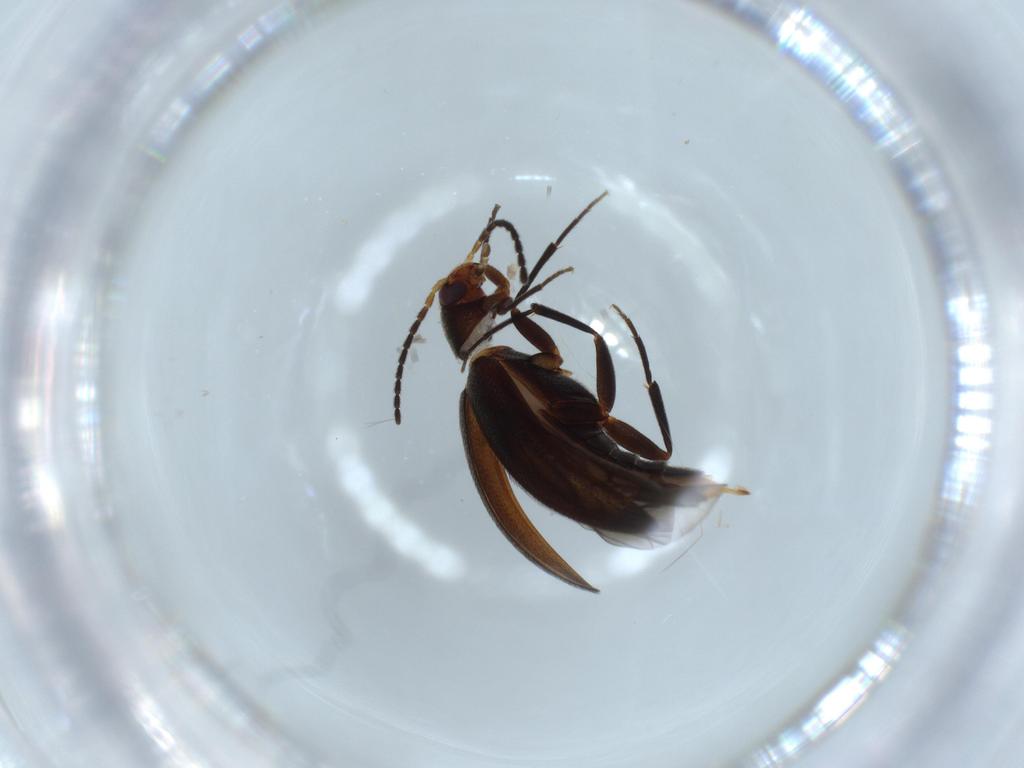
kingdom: Animalia
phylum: Arthropoda
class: Insecta
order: Coleoptera
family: Melandryidae
